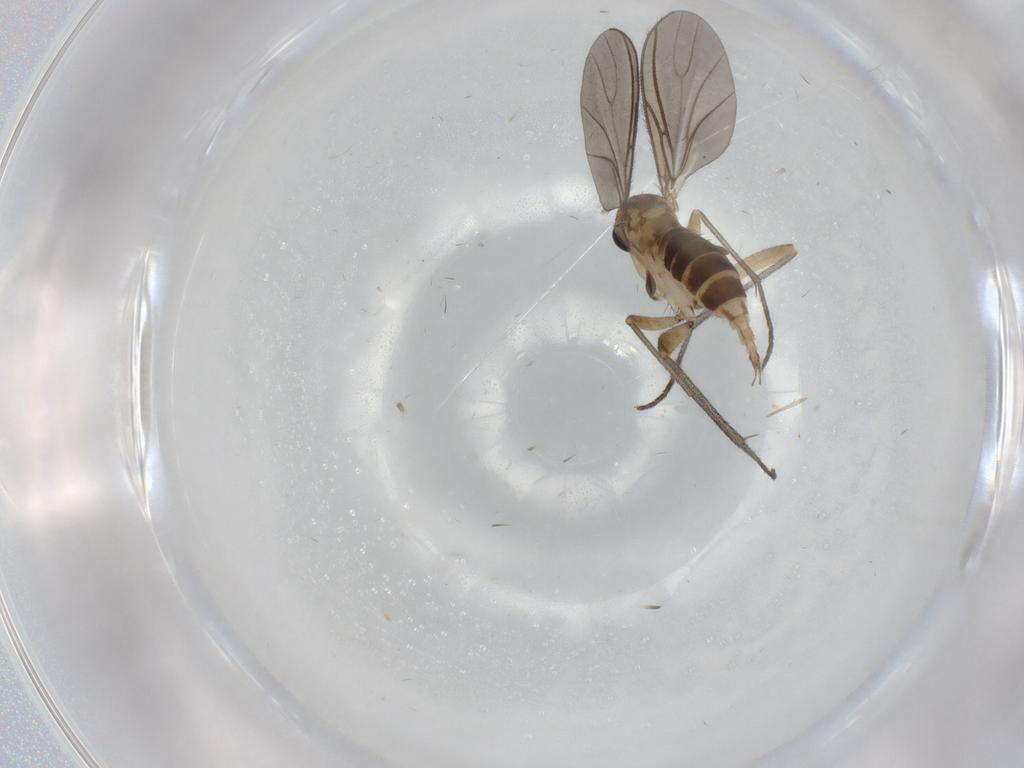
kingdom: Animalia
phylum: Arthropoda
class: Insecta
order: Diptera
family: Sciaridae
